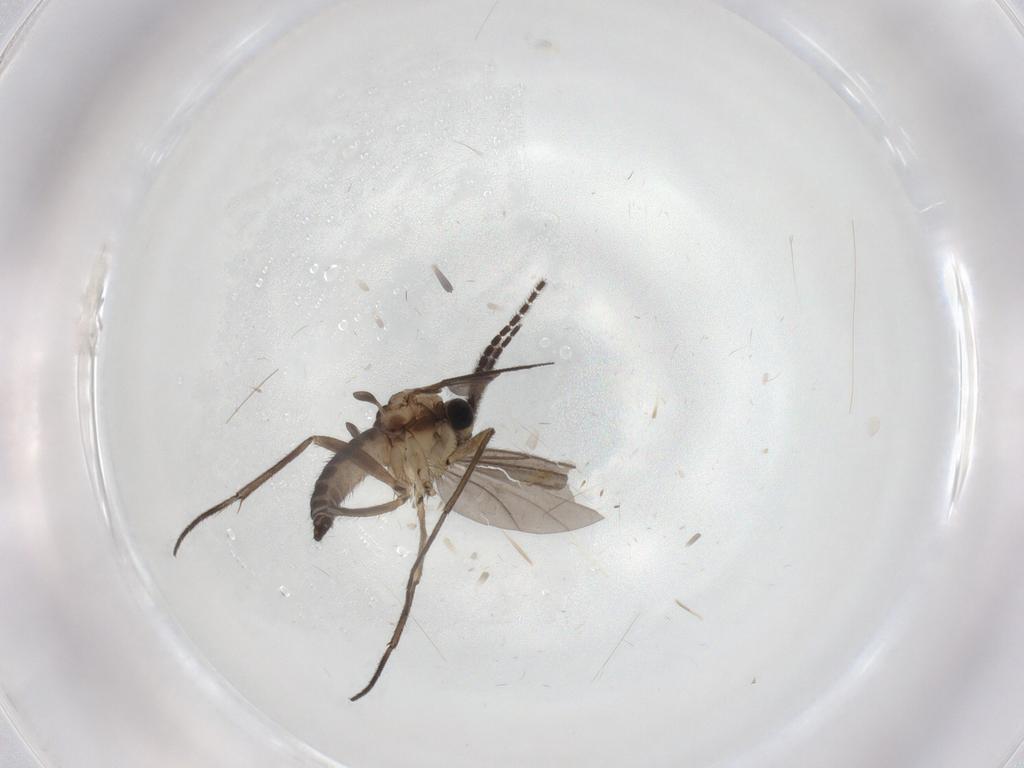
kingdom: Animalia
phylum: Arthropoda
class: Insecta
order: Diptera
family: Sciaridae
